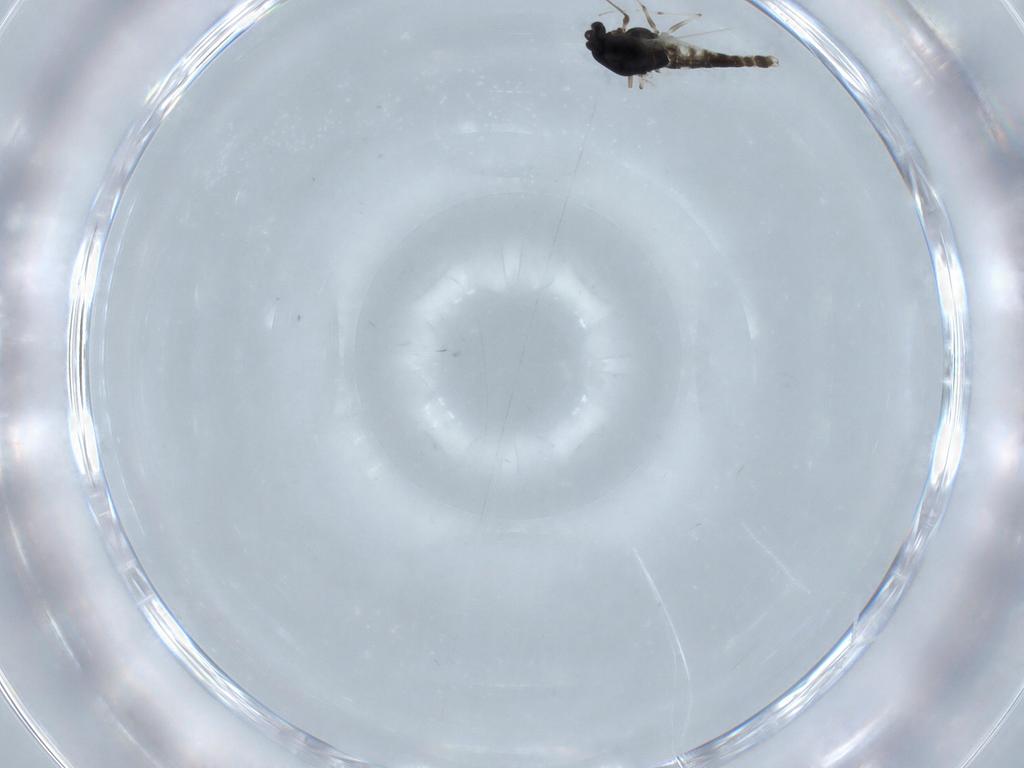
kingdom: Animalia
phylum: Arthropoda
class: Insecta
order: Diptera
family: Chironomidae
